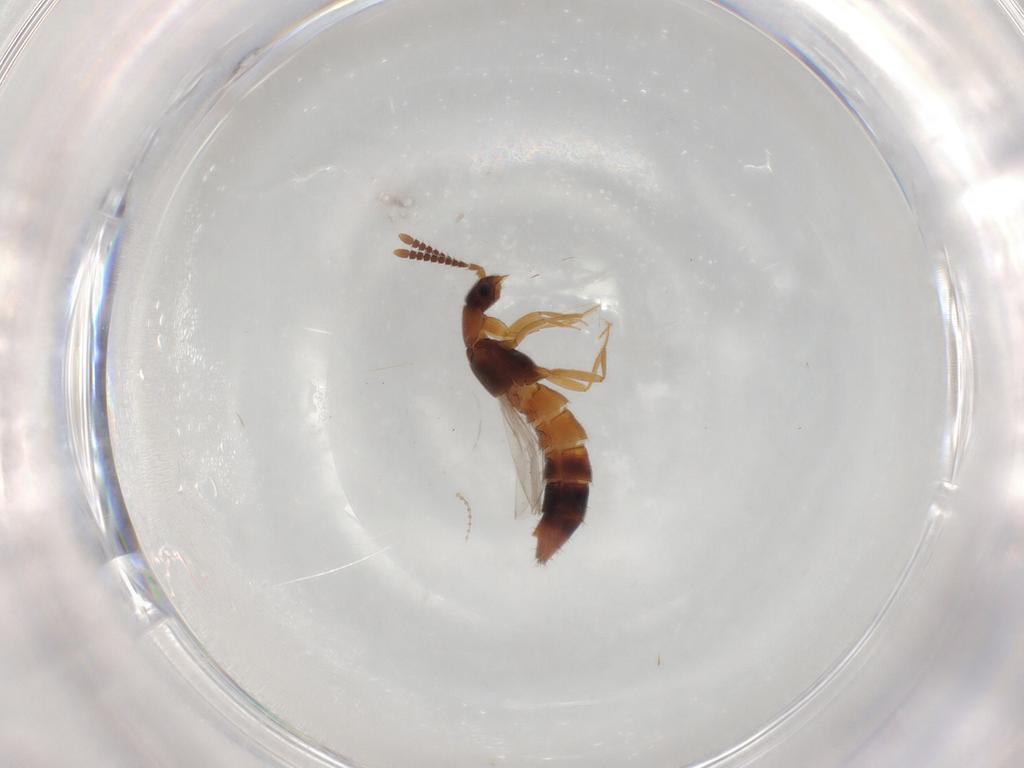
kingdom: Animalia
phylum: Arthropoda
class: Insecta
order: Coleoptera
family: Staphylinidae
